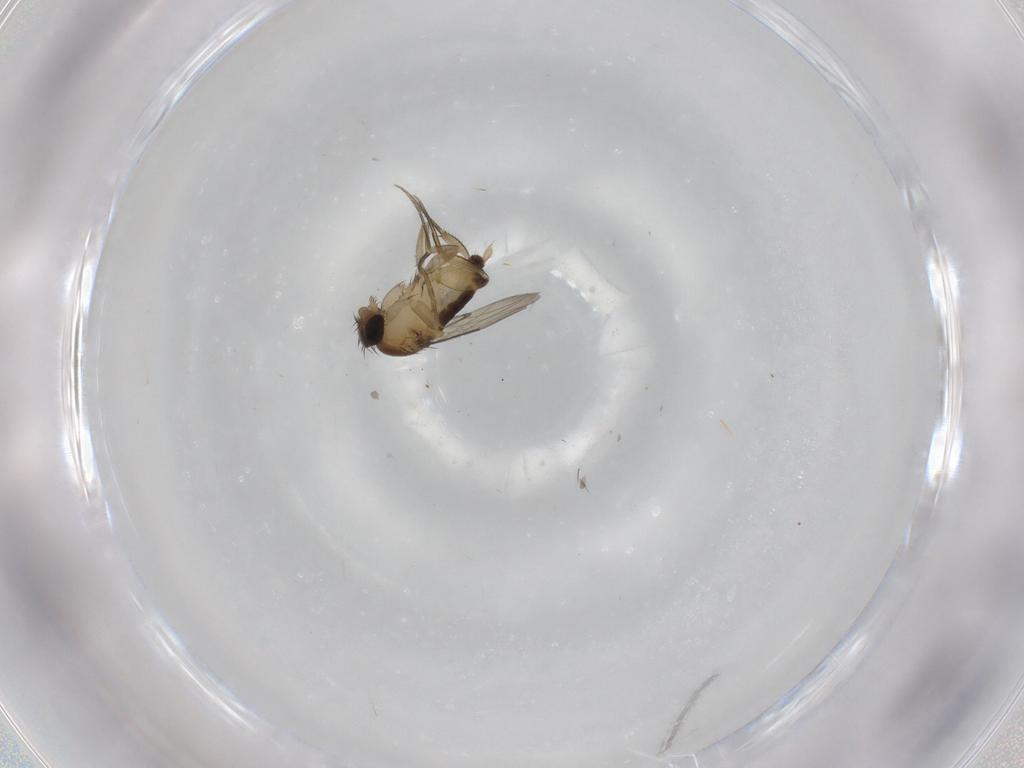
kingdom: Animalia
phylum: Arthropoda
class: Insecta
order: Diptera
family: Phoridae
